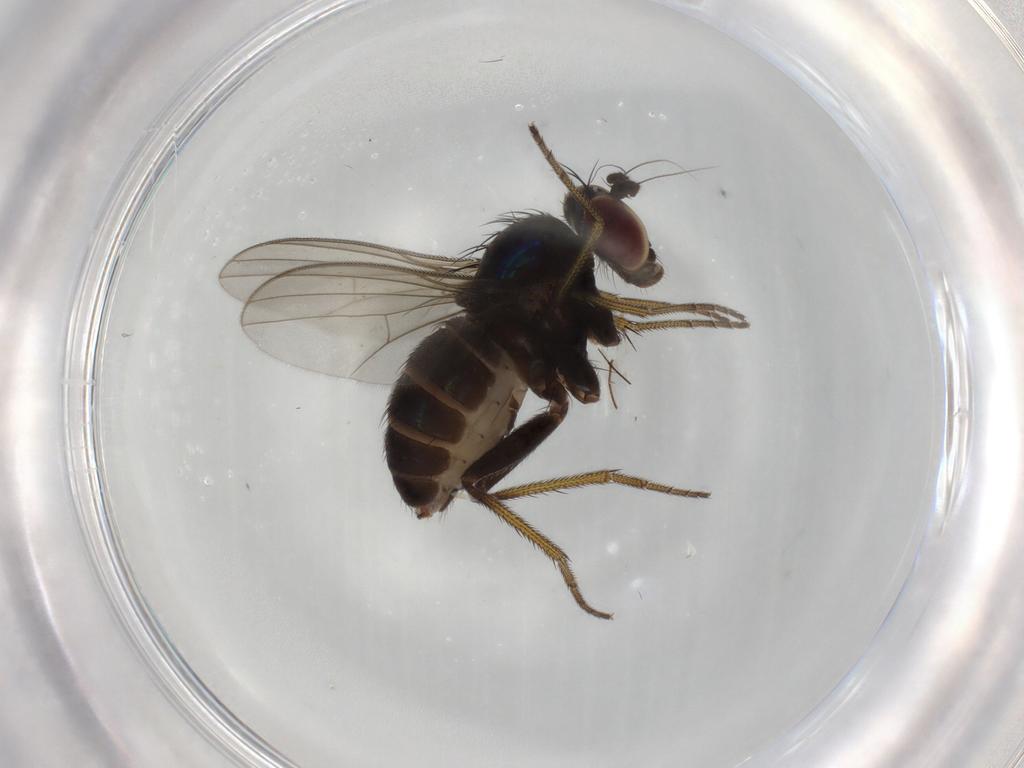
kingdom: Animalia
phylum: Arthropoda
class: Insecta
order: Diptera
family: Dolichopodidae
